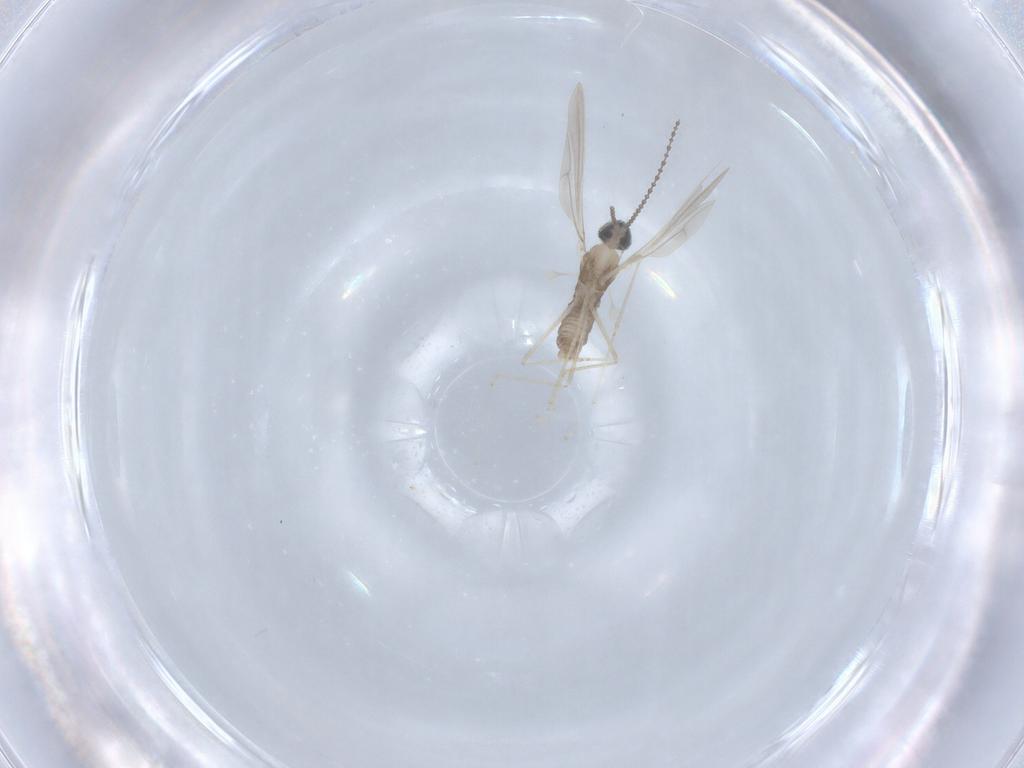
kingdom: Animalia
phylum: Arthropoda
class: Insecta
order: Diptera
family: Cecidomyiidae
